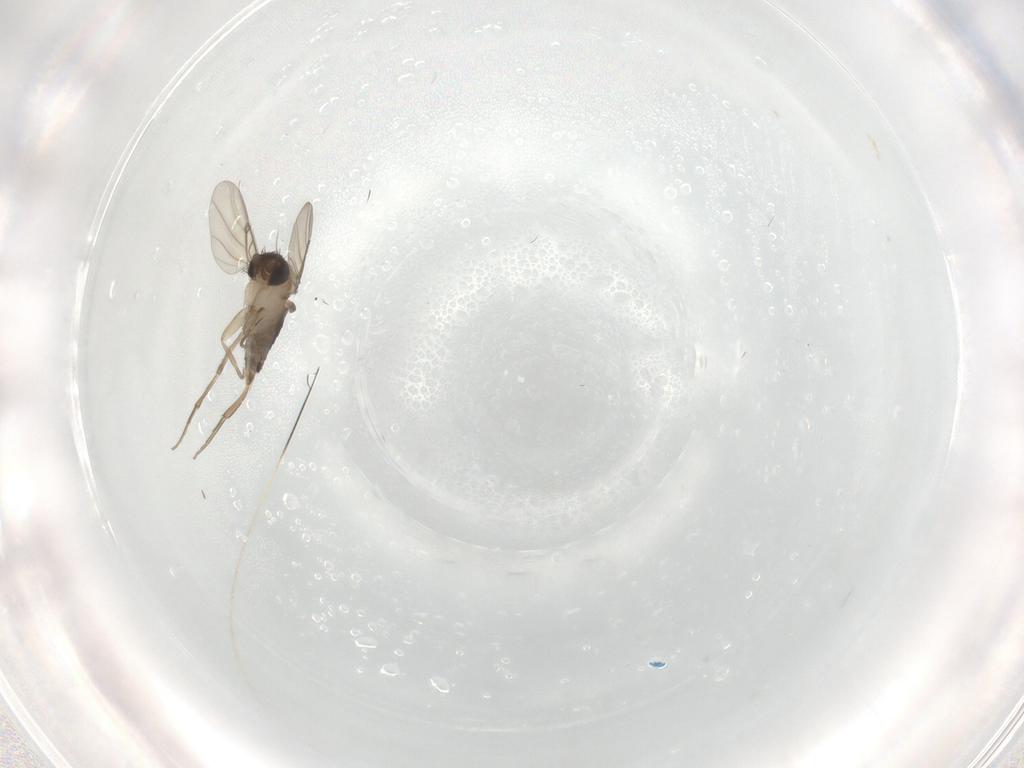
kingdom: Animalia
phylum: Arthropoda
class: Insecta
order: Diptera
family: Phoridae
